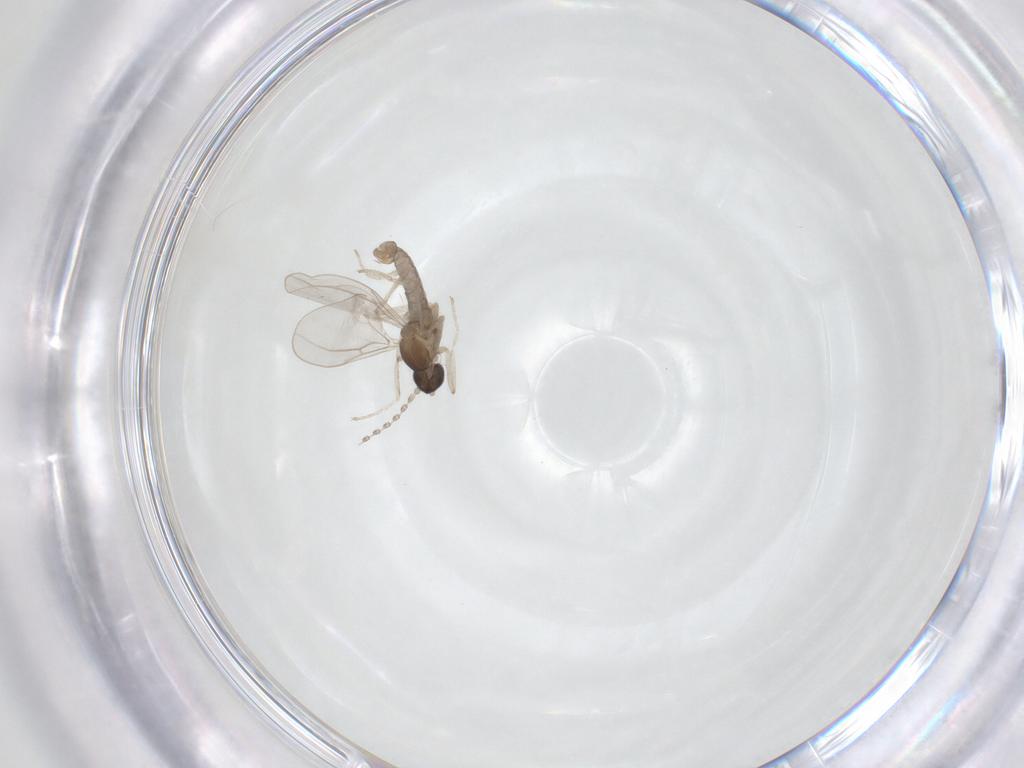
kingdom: Animalia
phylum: Arthropoda
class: Insecta
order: Diptera
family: Cecidomyiidae
